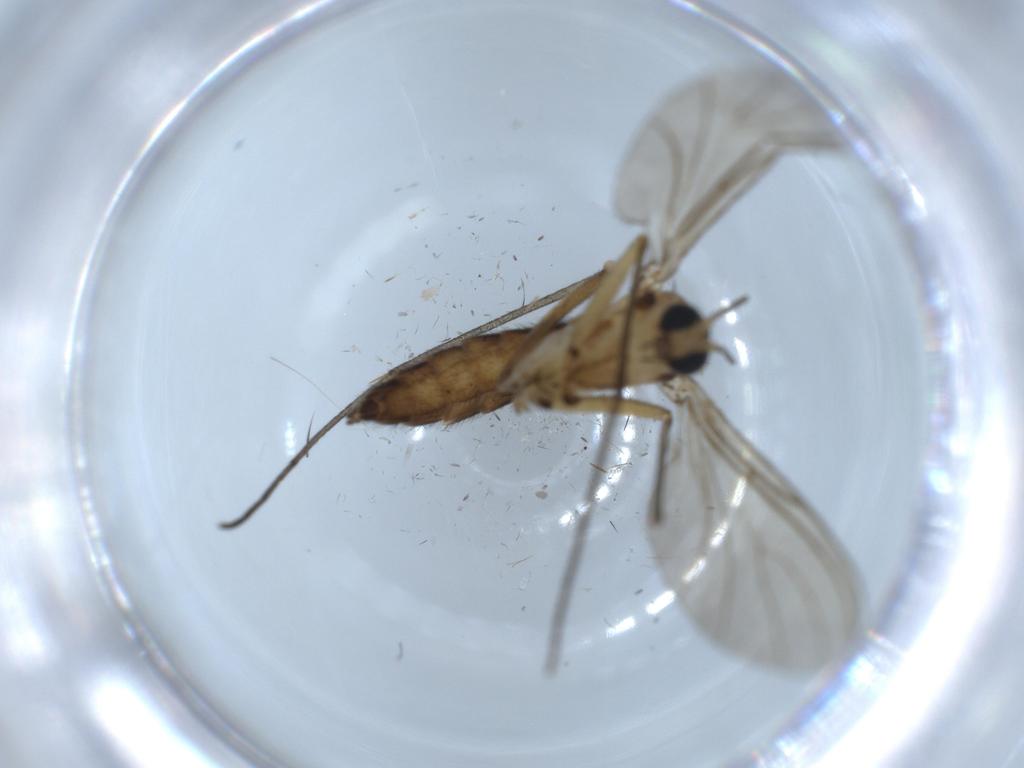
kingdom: Animalia
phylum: Arthropoda
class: Insecta
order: Diptera
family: Sciaridae
